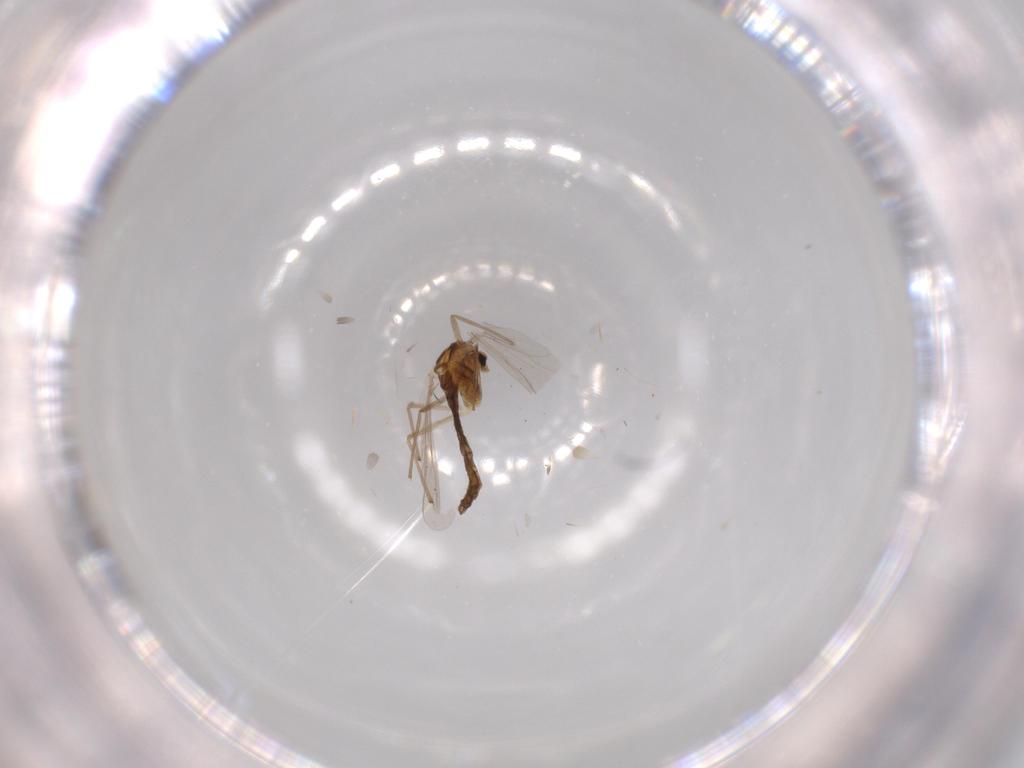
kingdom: Animalia
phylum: Arthropoda
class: Insecta
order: Diptera
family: Chironomidae
